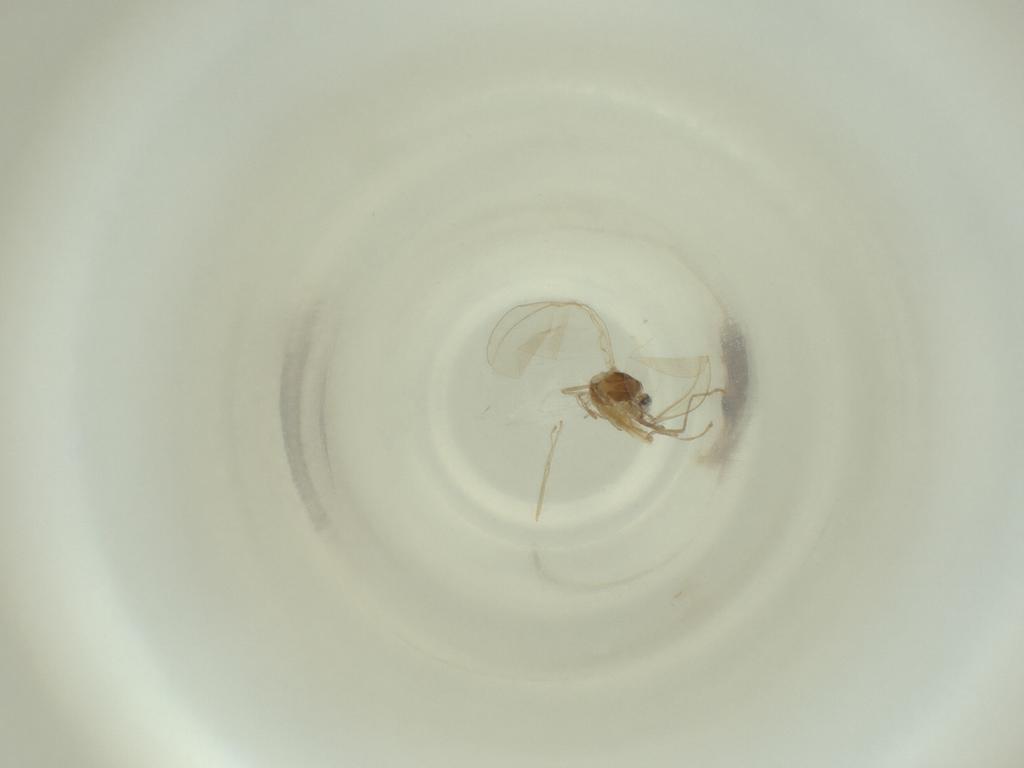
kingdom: Animalia
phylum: Arthropoda
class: Insecta
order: Diptera
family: Cecidomyiidae
